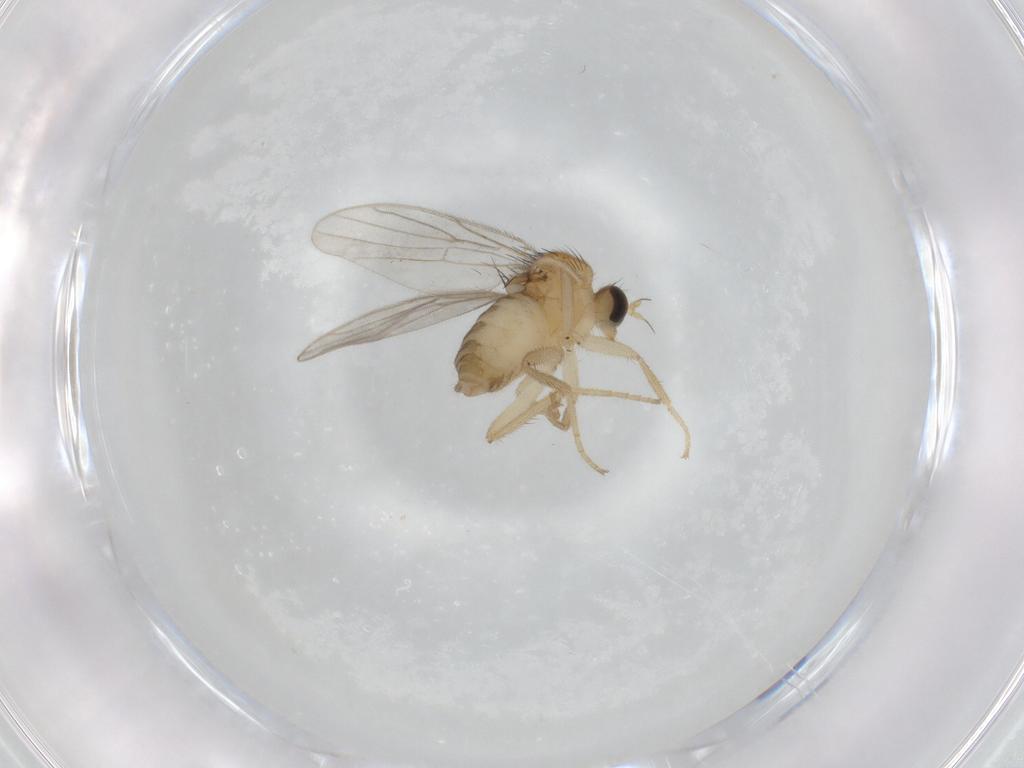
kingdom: Animalia
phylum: Arthropoda
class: Insecta
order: Diptera
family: Hybotidae
